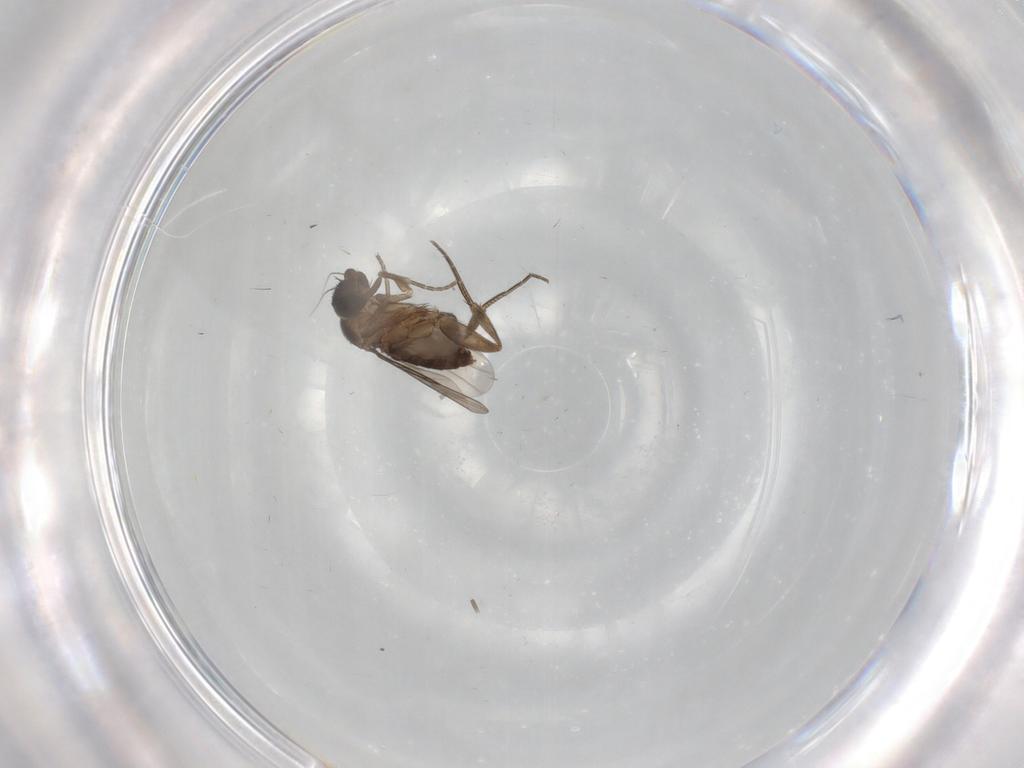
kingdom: Animalia
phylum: Arthropoda
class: Insecta
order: Diptera
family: Phoridae
